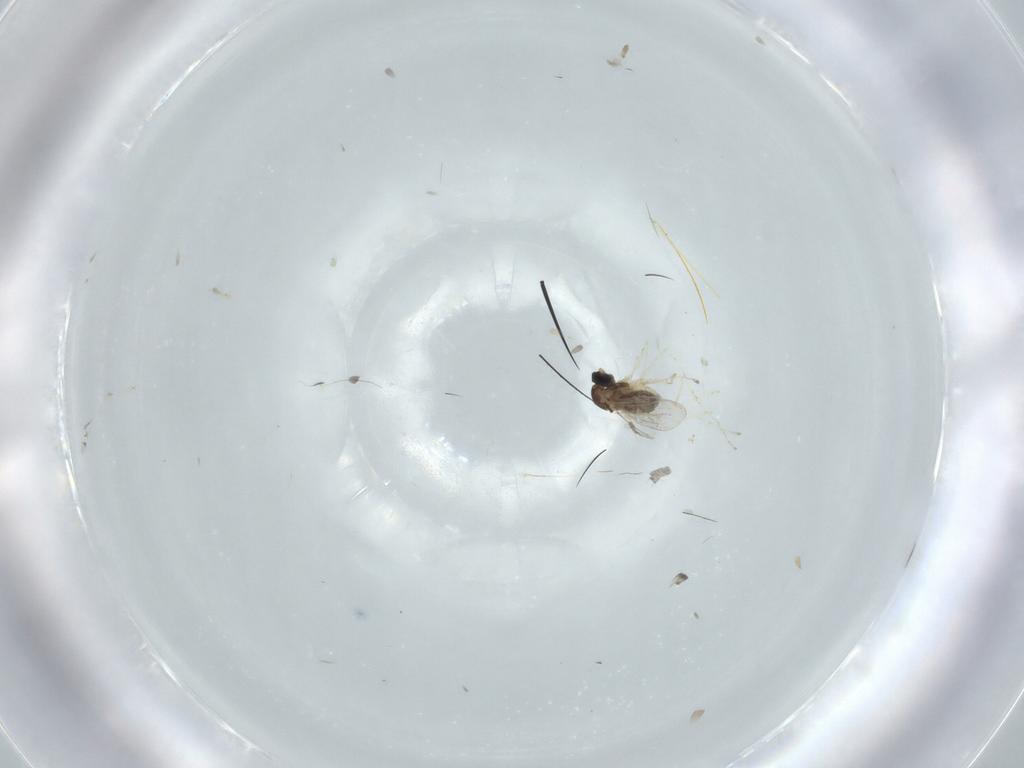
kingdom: Animalia
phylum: Arthropoda
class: Insecta
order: Diptera
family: Cecidomyiidae
